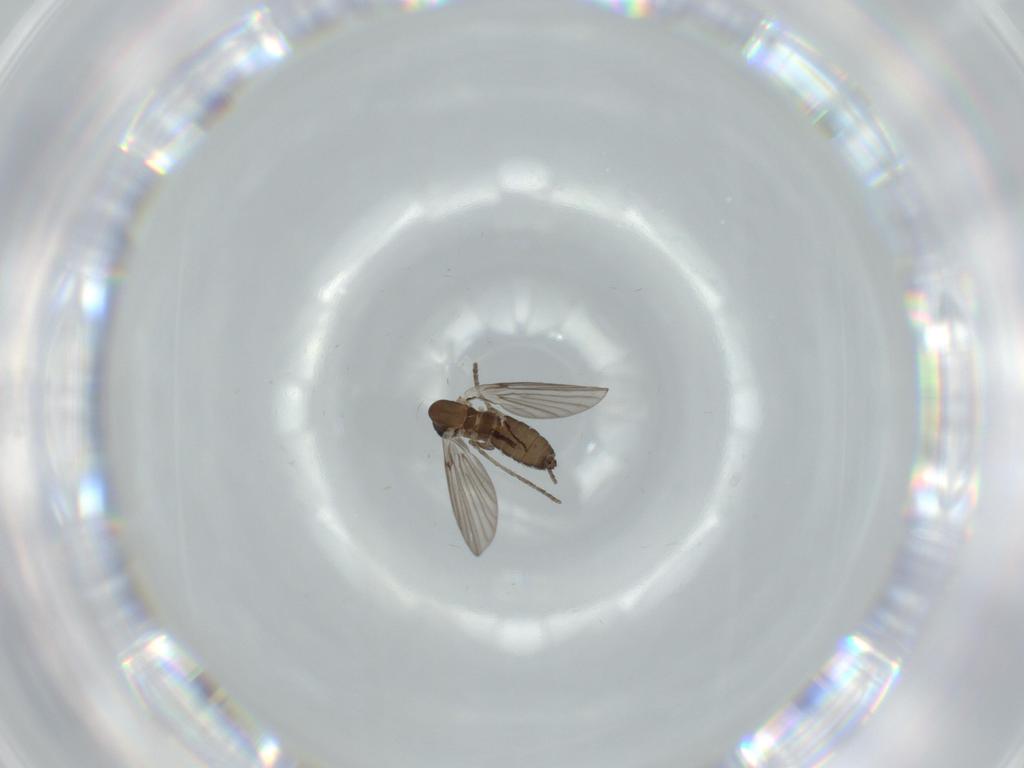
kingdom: Animalia
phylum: Arthropoda
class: Insecta
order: Diptera
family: Psychodidae
